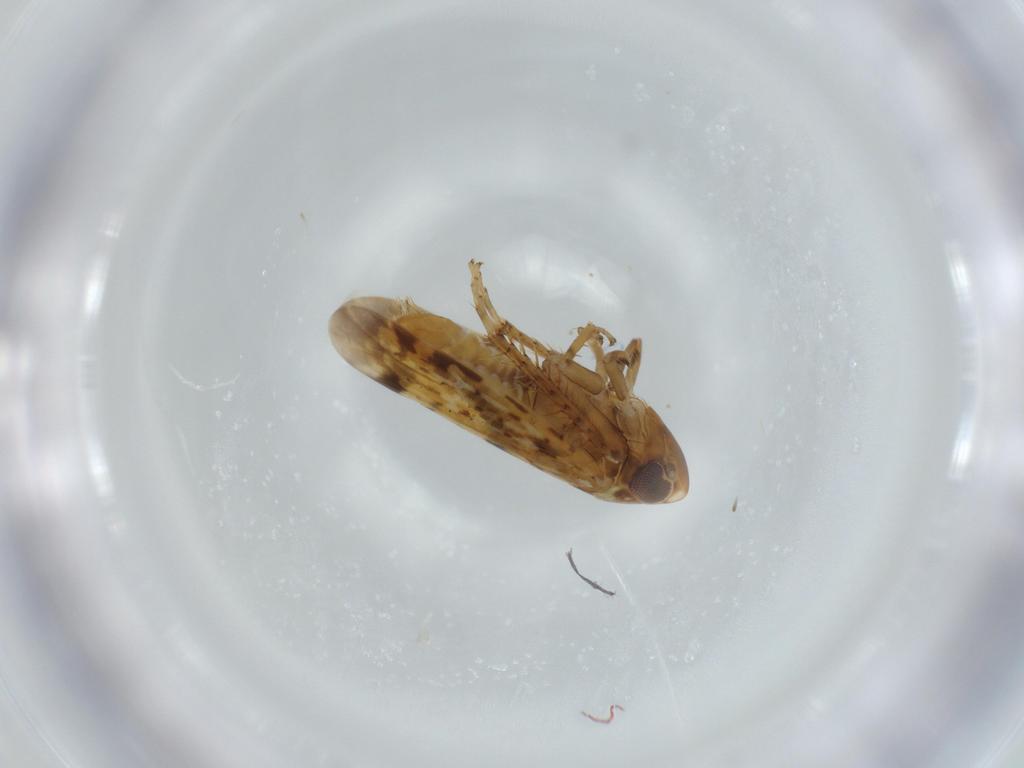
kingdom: Animalia
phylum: Arthropoda
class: Insecta
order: Hemiptera
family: Cicadellidae
